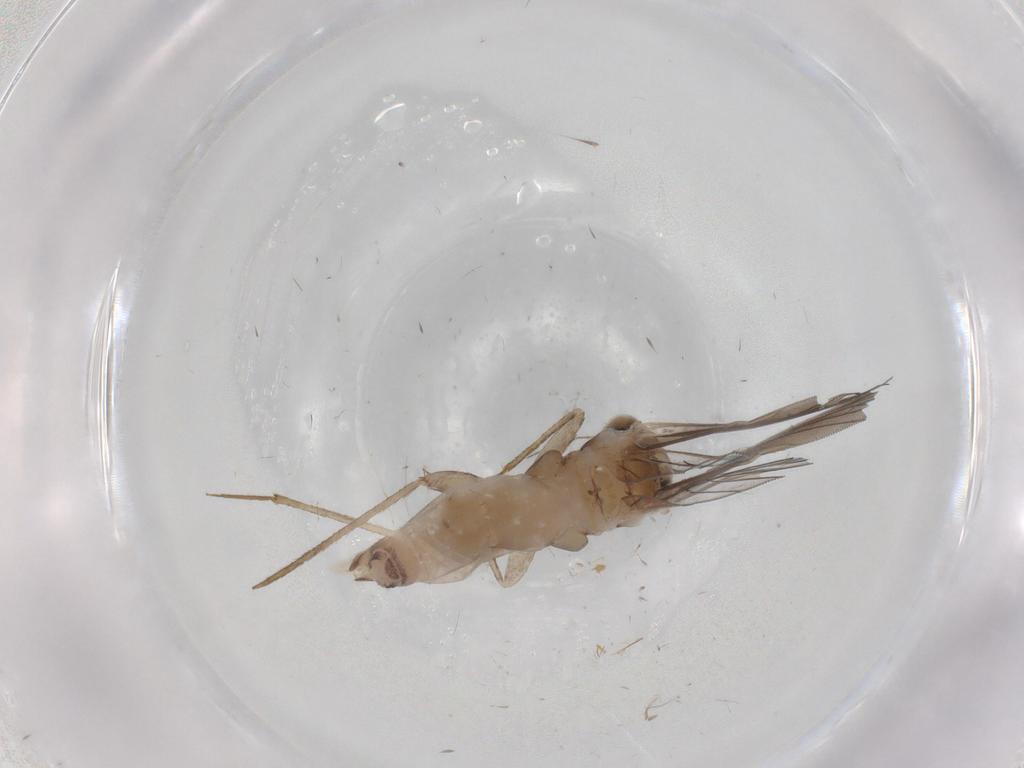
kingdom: Animalia
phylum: Arthropoda
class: Insecta
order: Psocodea
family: Lepidopsocidae
